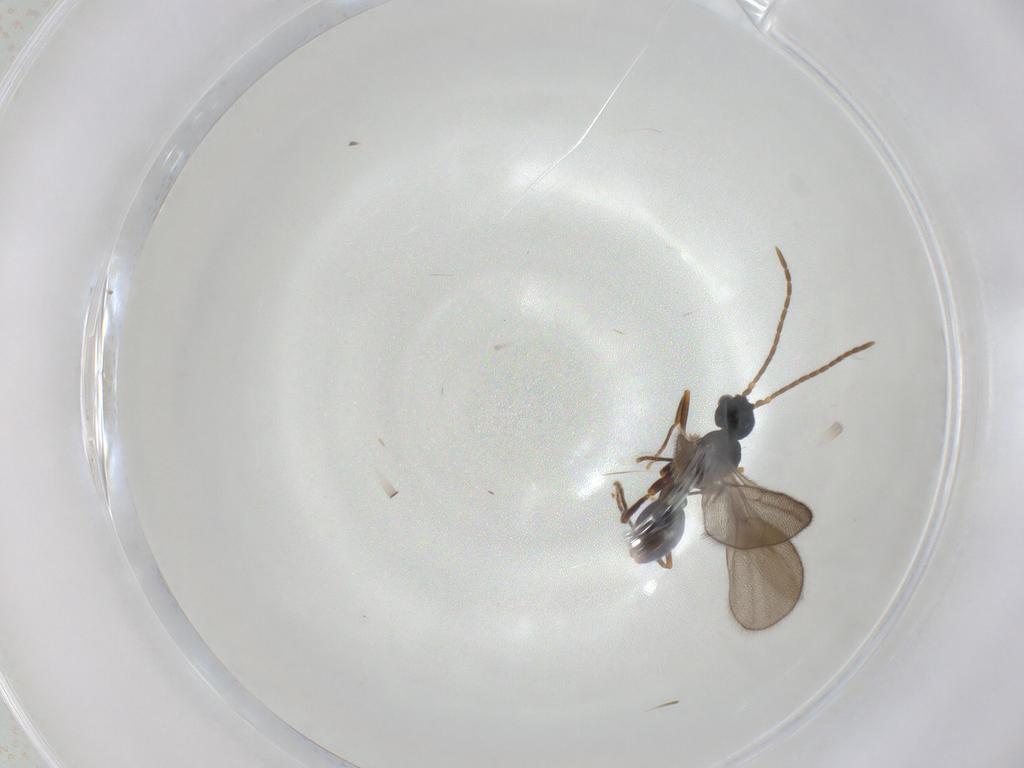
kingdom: Animalia
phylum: Arthropoda
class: Insecta
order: Hymenoptera
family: Formicidae
